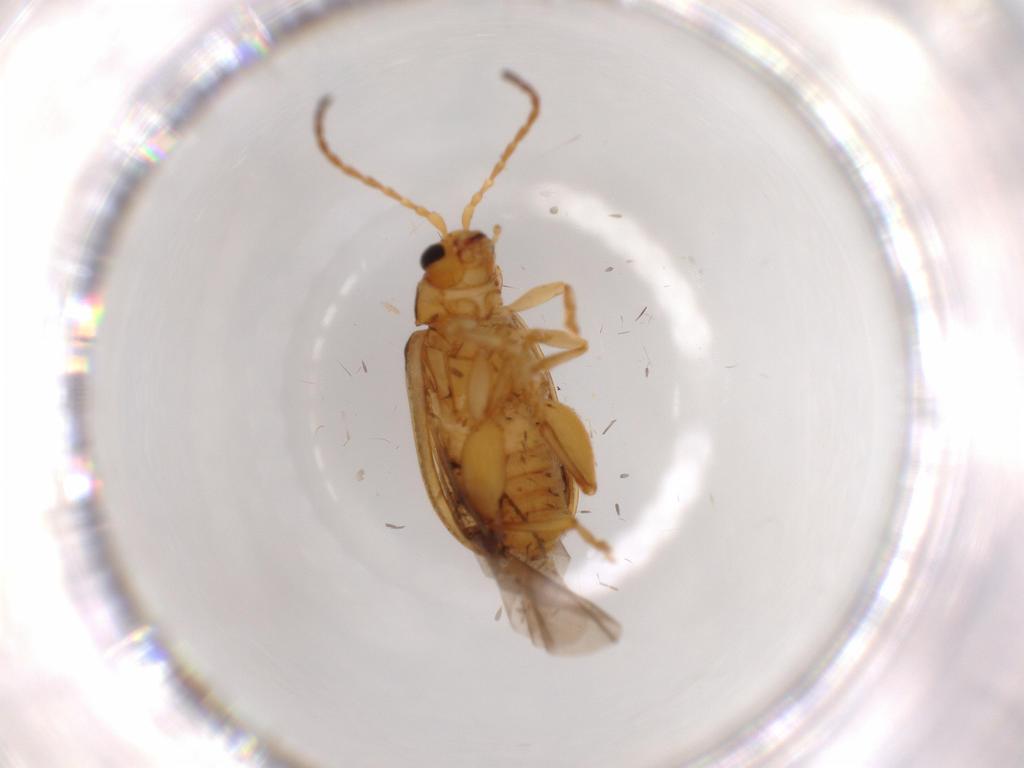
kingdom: Animalia
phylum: Arthropoda
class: Insecta
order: Coleoptera
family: Chrysomelidae
